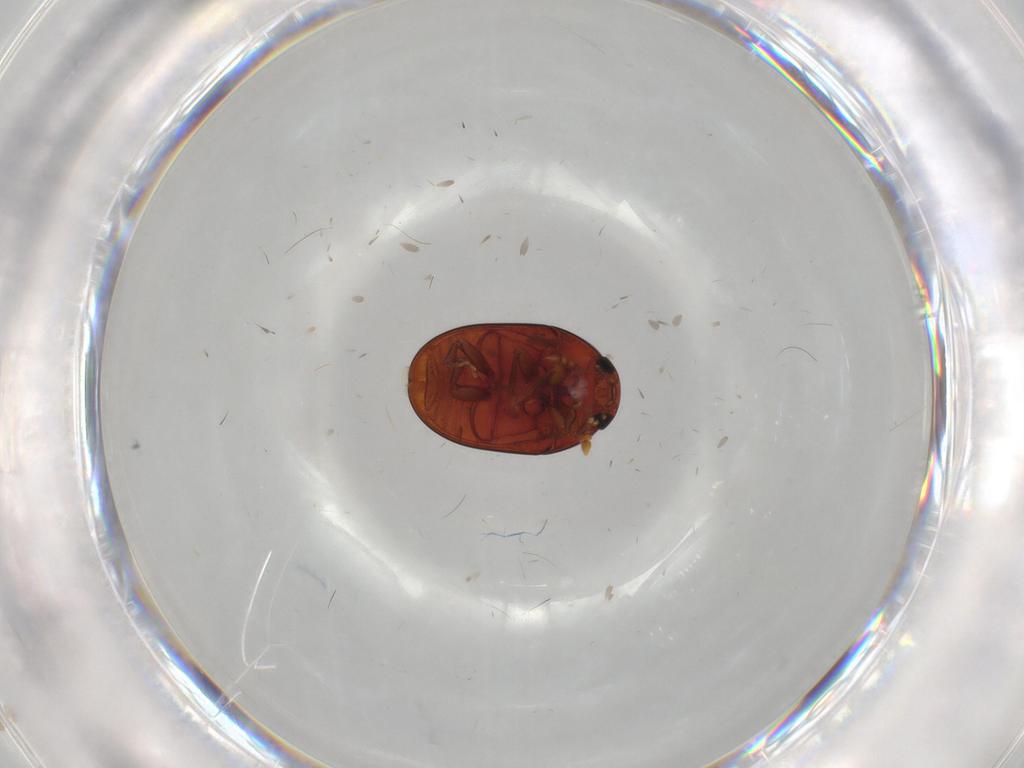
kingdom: Animalia
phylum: Arthropoda
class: Insecta
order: Coleoptera
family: Phalacridae
